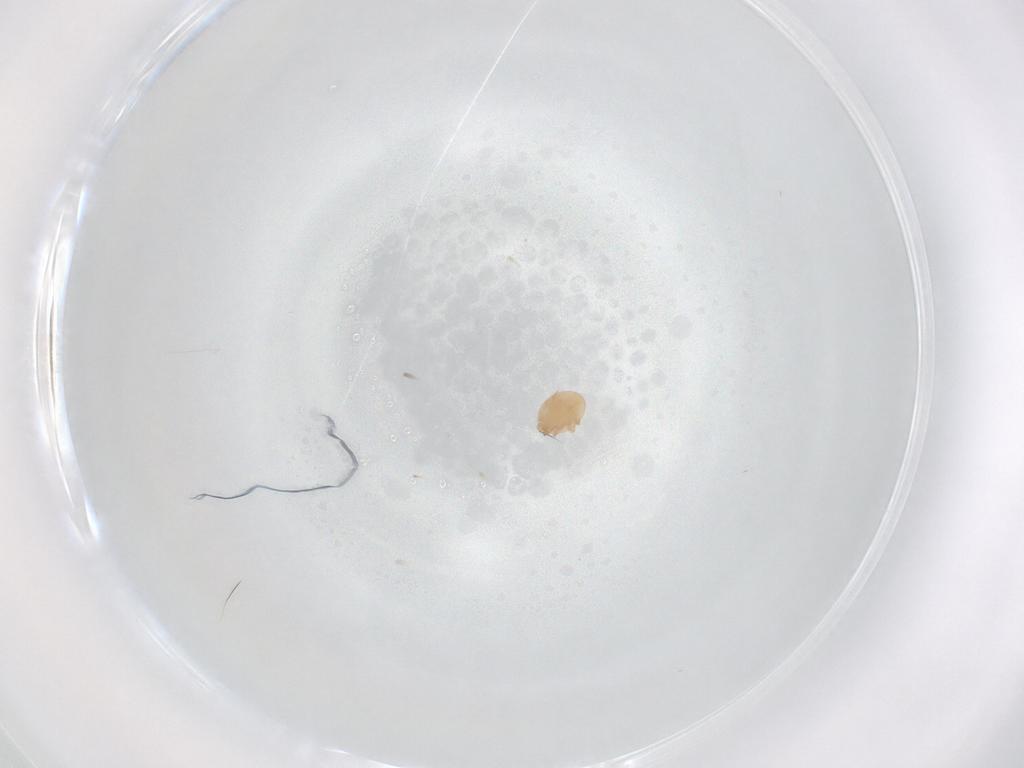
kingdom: Animalia
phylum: Arthropoda
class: Arachnida
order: Mesostigmata
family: Trematuridae
